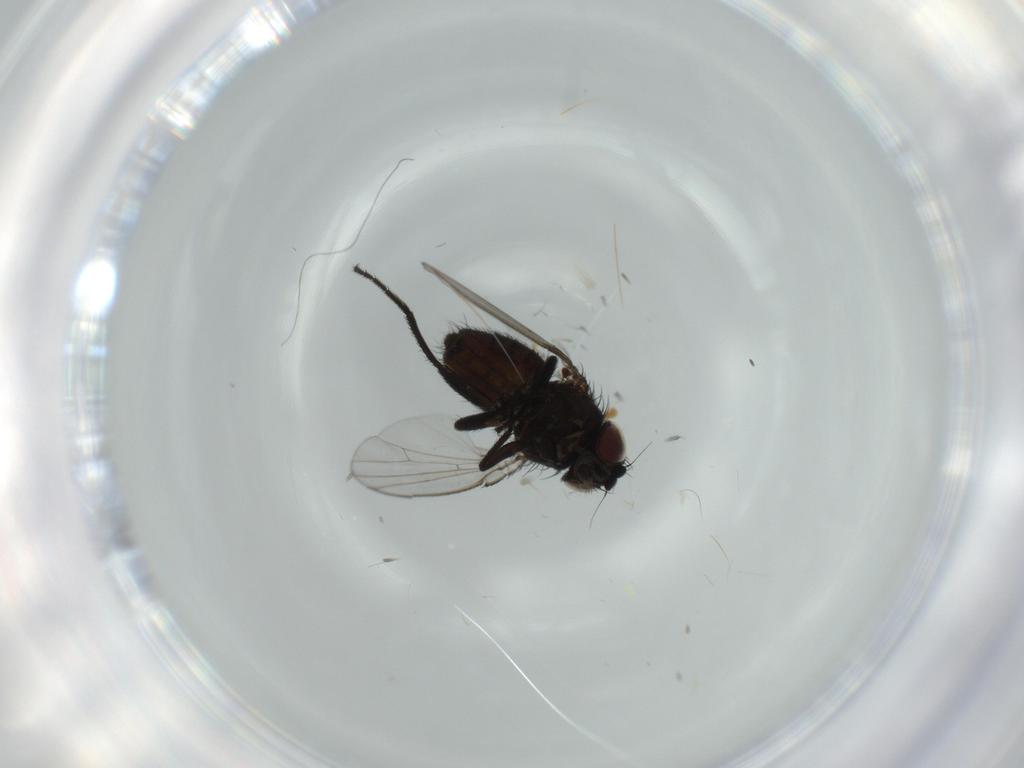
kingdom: Animalia
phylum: Arthropoda
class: Insecta
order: Diptera
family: Milichiidae
